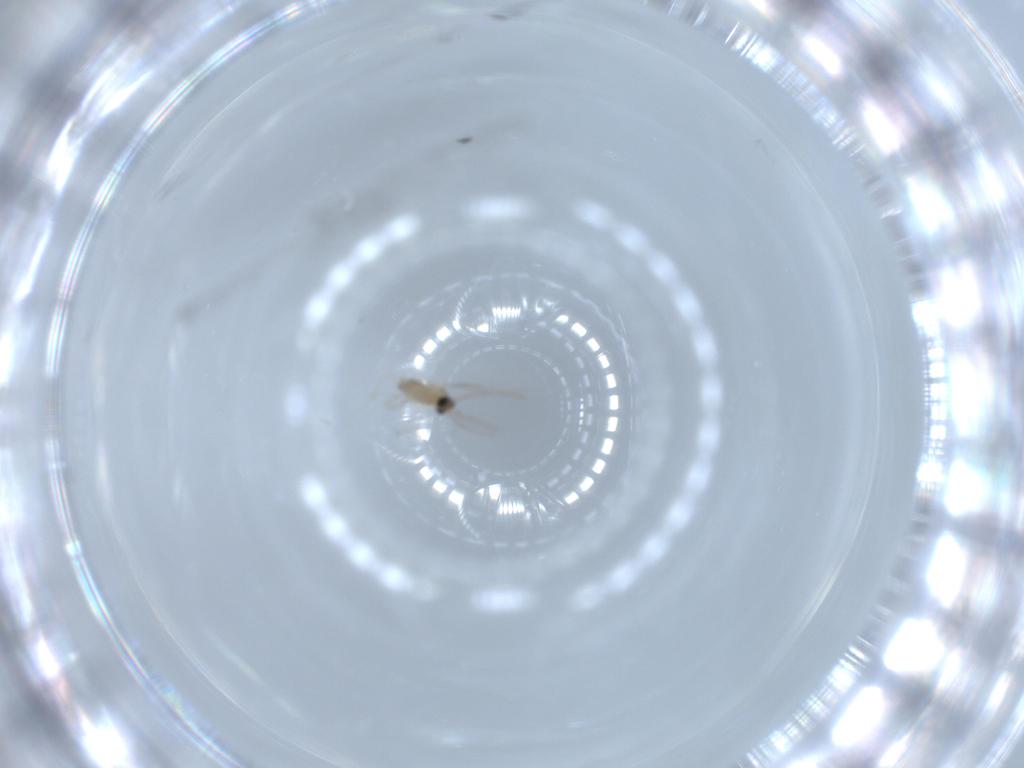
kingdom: Animalia
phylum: Arthropoda
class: Insecta
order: Diptera
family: Cecidomyiidae
